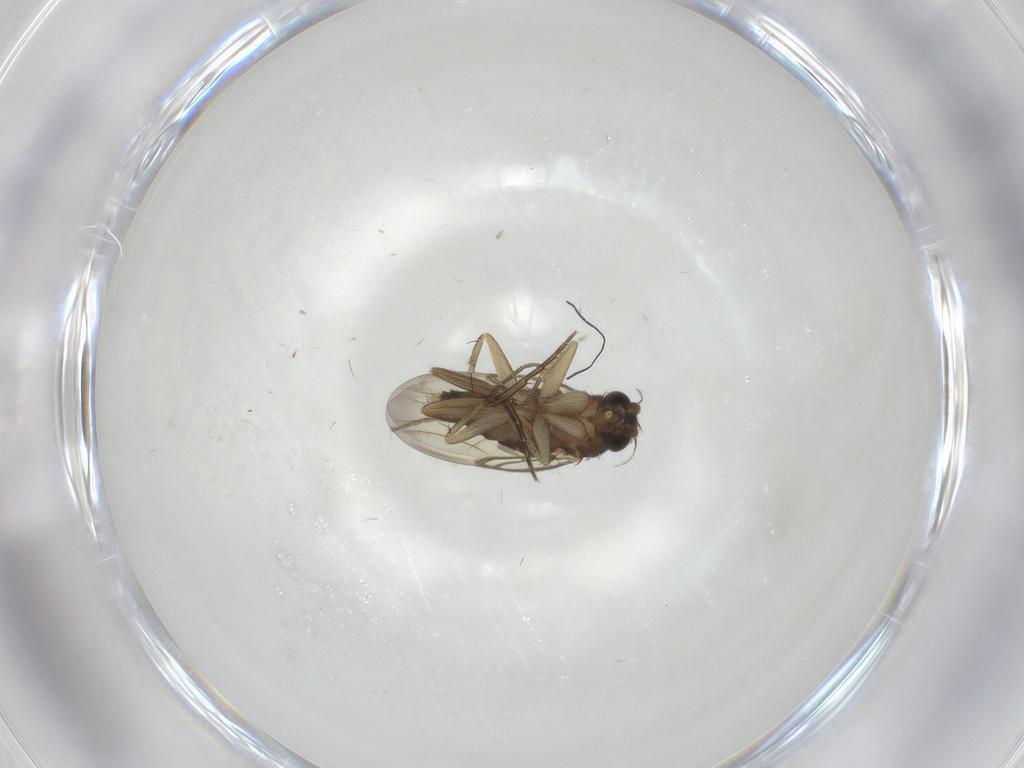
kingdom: Animalia
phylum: Arthropoda
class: Insecta
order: Diptera
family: Phoridae
